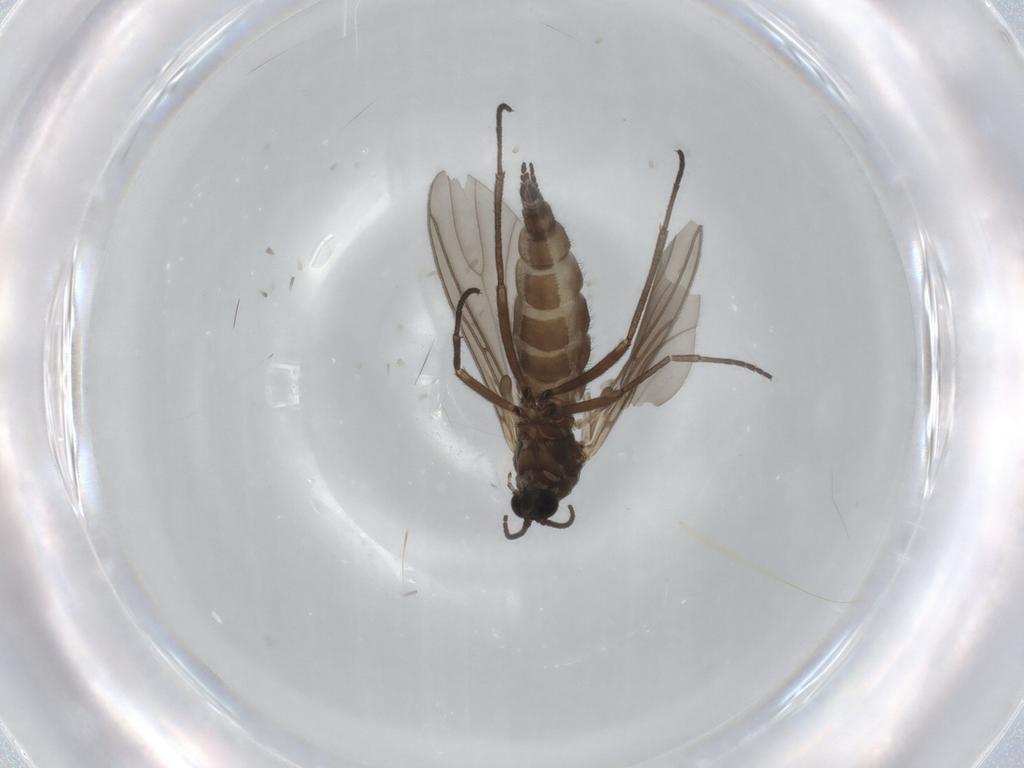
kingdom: Animalia
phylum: Arthropoda
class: Insecta
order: Diptera
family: Sciaridae
